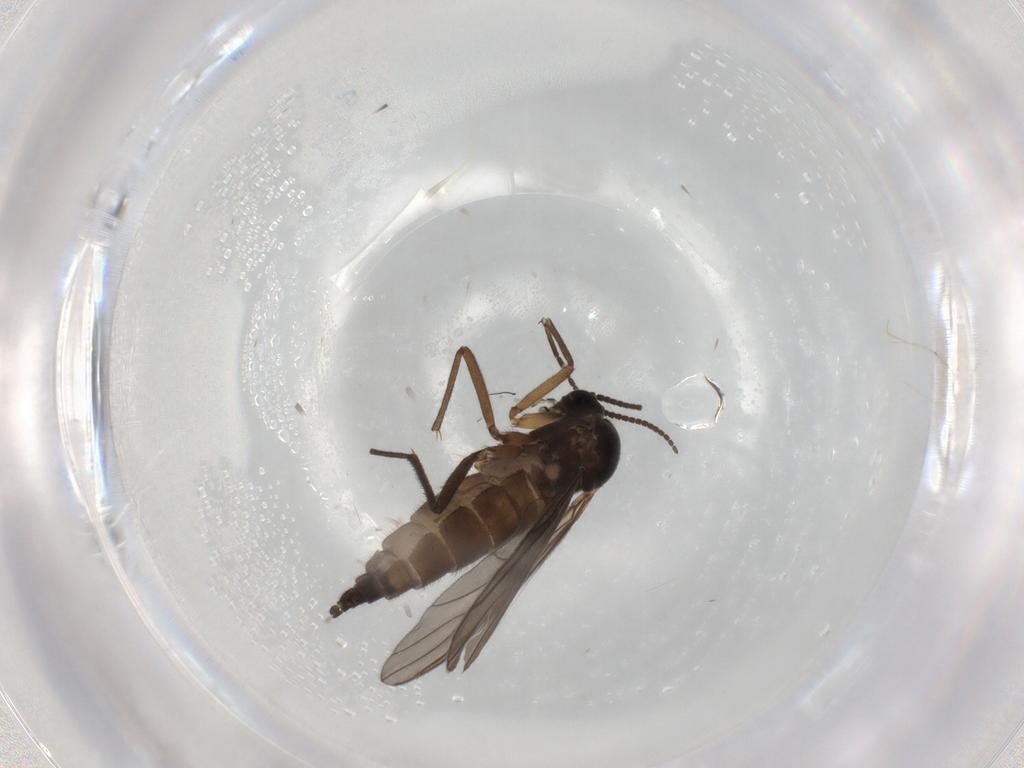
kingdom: Animalia
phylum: Arthropoda
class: Insecta
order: Diptera
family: Sciaridae
